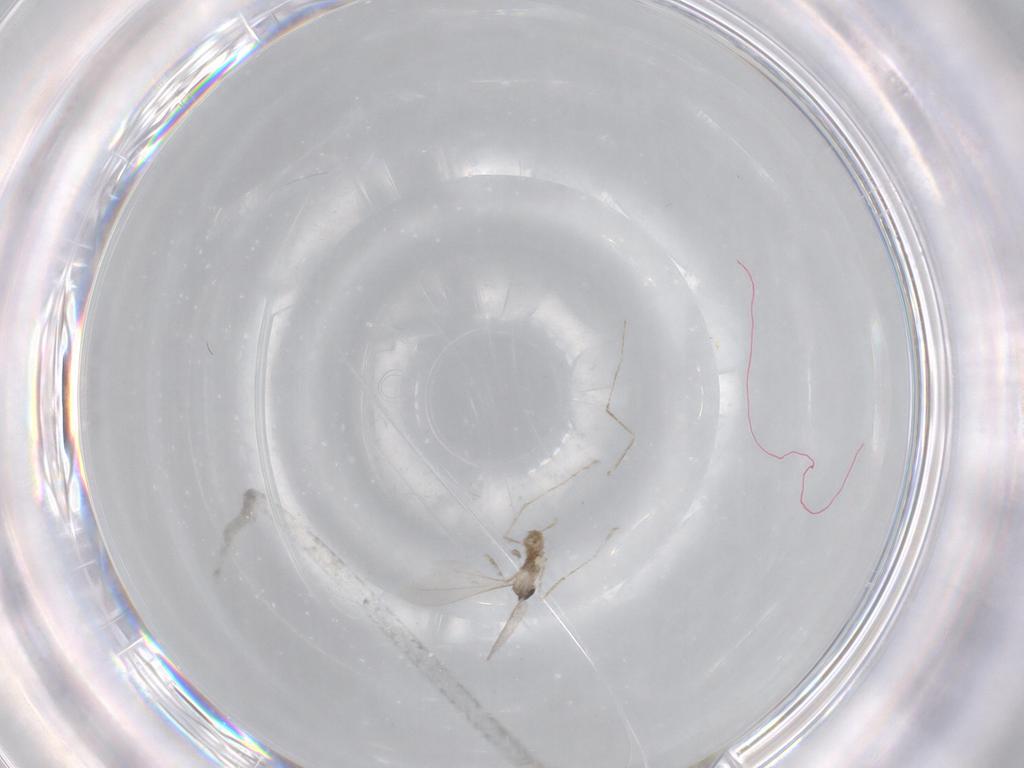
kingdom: Animalia
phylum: Arthropoda
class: Insecta
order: Diptera
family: Cecidomyiidae
